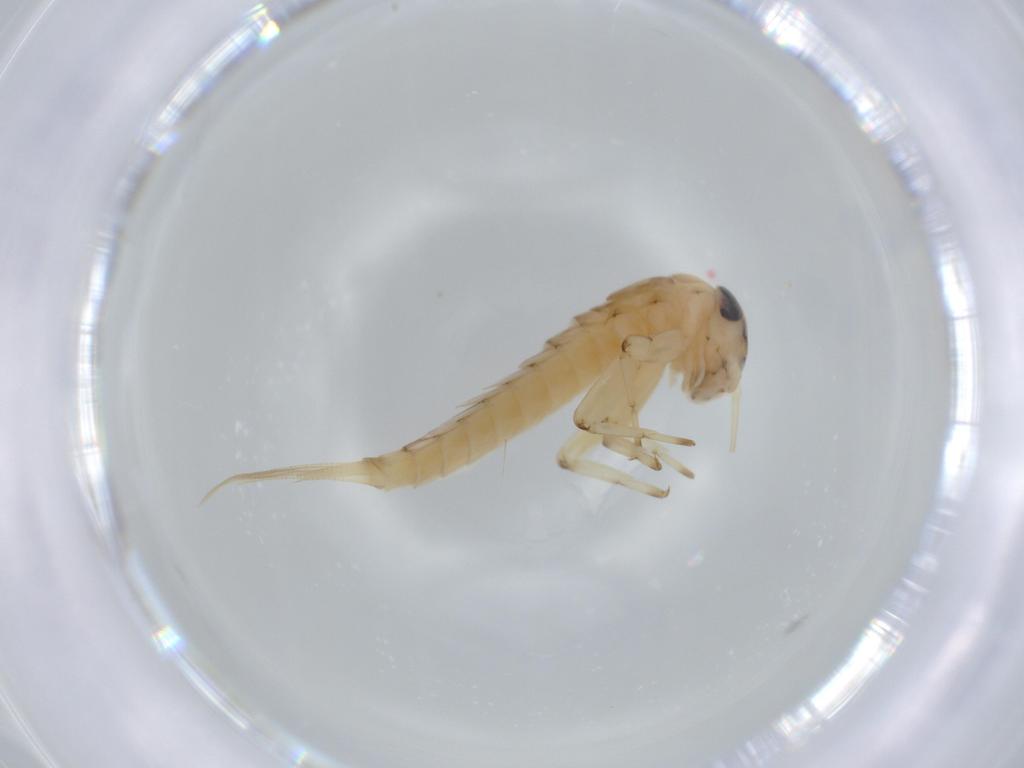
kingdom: Animalia
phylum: Arthropoda
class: Insecta
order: Ephemeroptera
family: Baetidae
